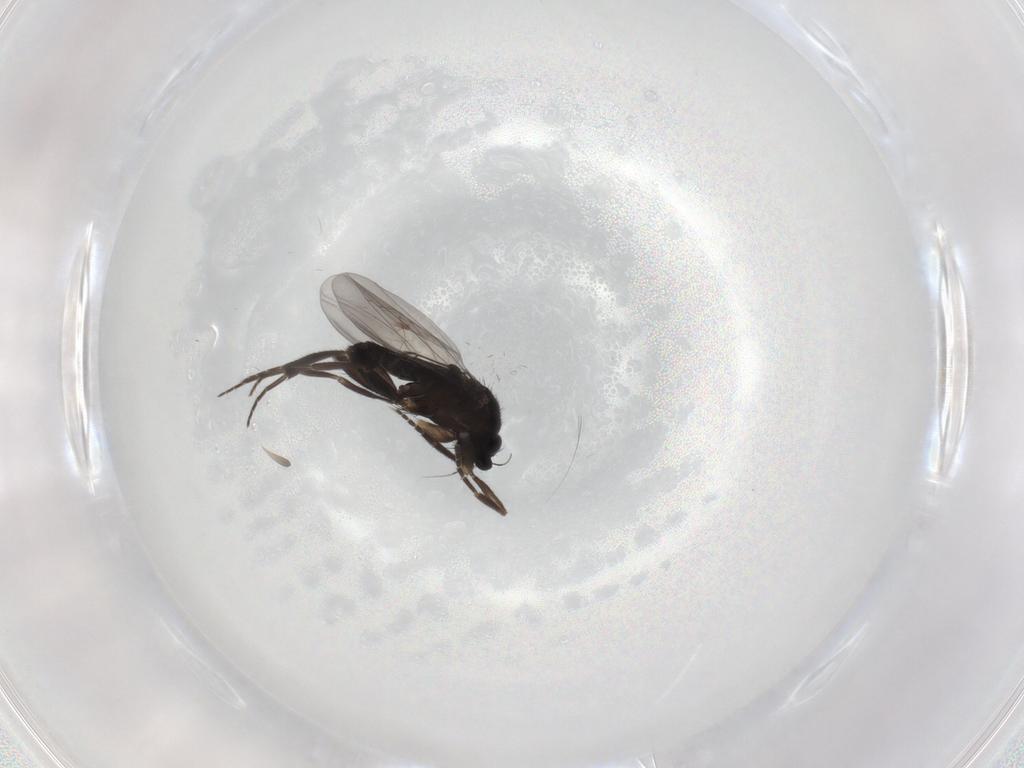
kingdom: Animalia
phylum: Arthropoda
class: Insecta
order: Diptera
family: Phoridae
